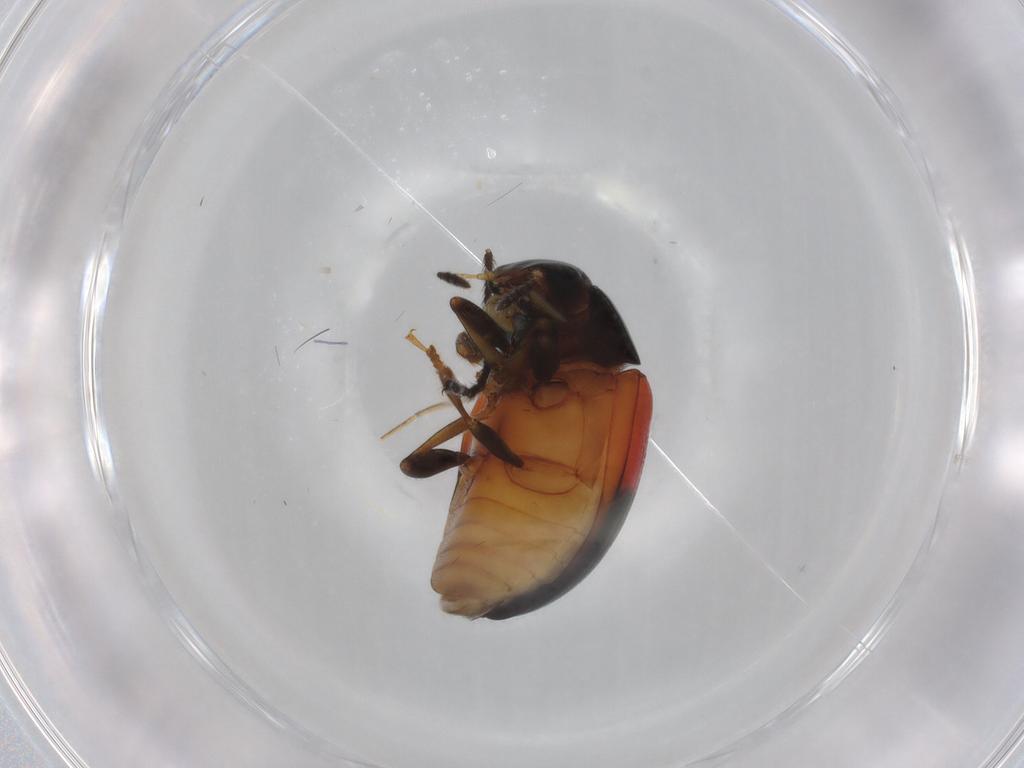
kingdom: Animalia
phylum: Arthropoda
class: Insecta
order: Coleoptera
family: Erotylidae
